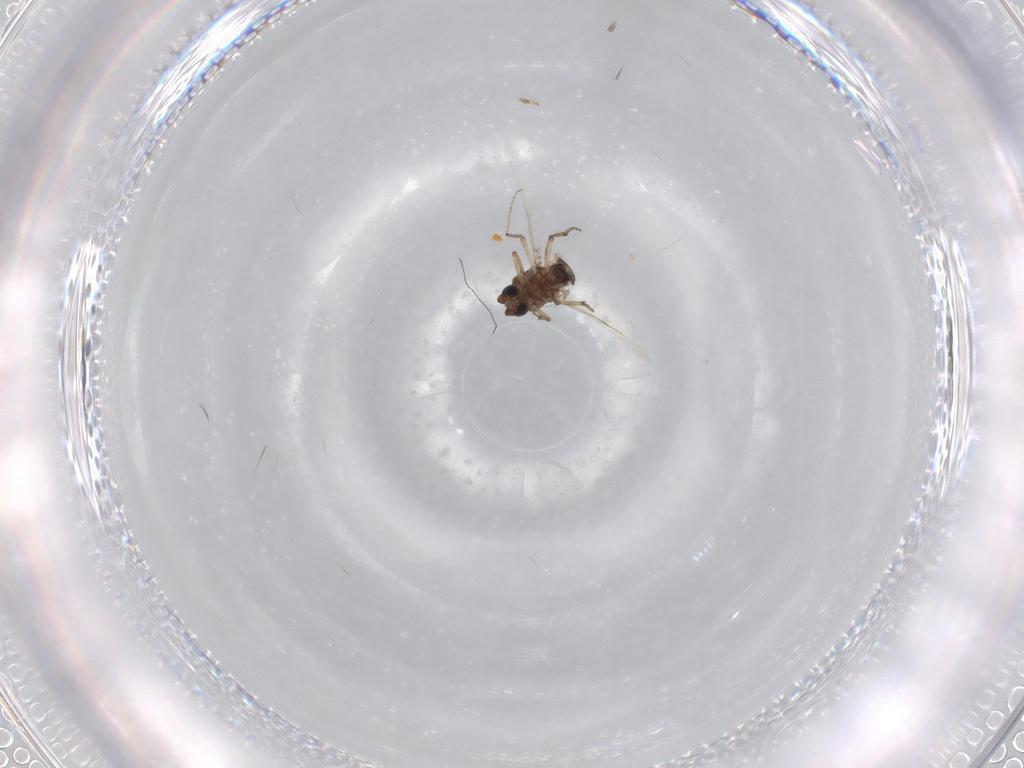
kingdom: Animalia
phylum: Arthropoda
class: Insecta
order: Diptera
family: Ceratopogonidae
